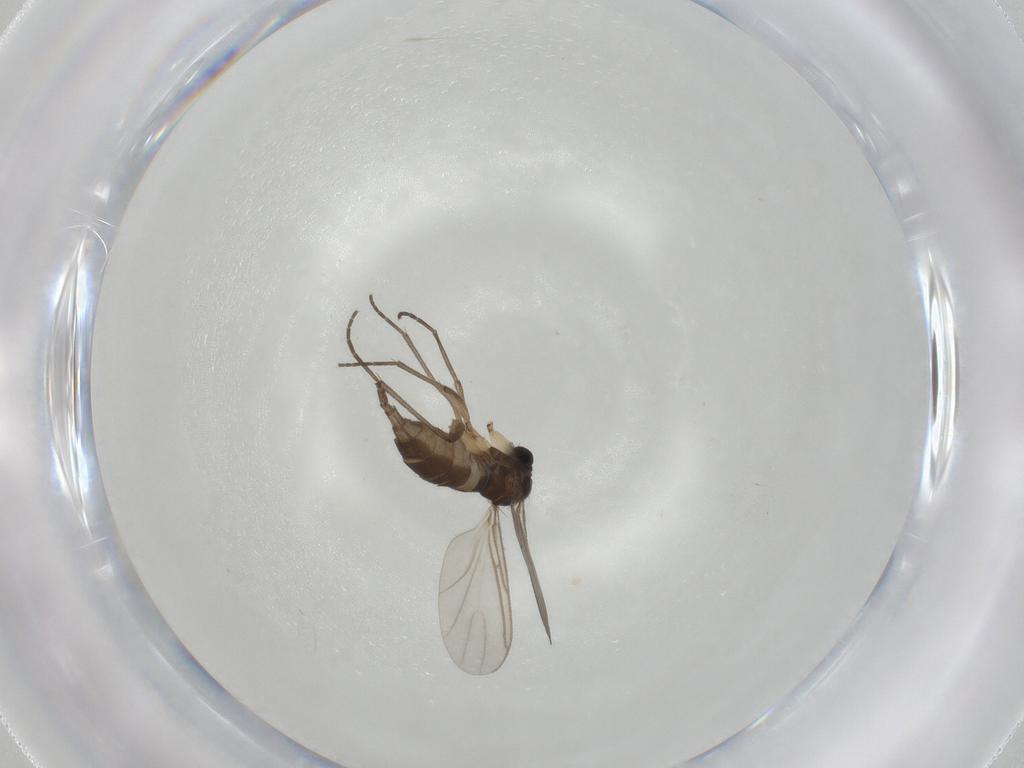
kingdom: Animalia
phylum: Arthropoda
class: Insecta
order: Diptera
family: Sciaridae
